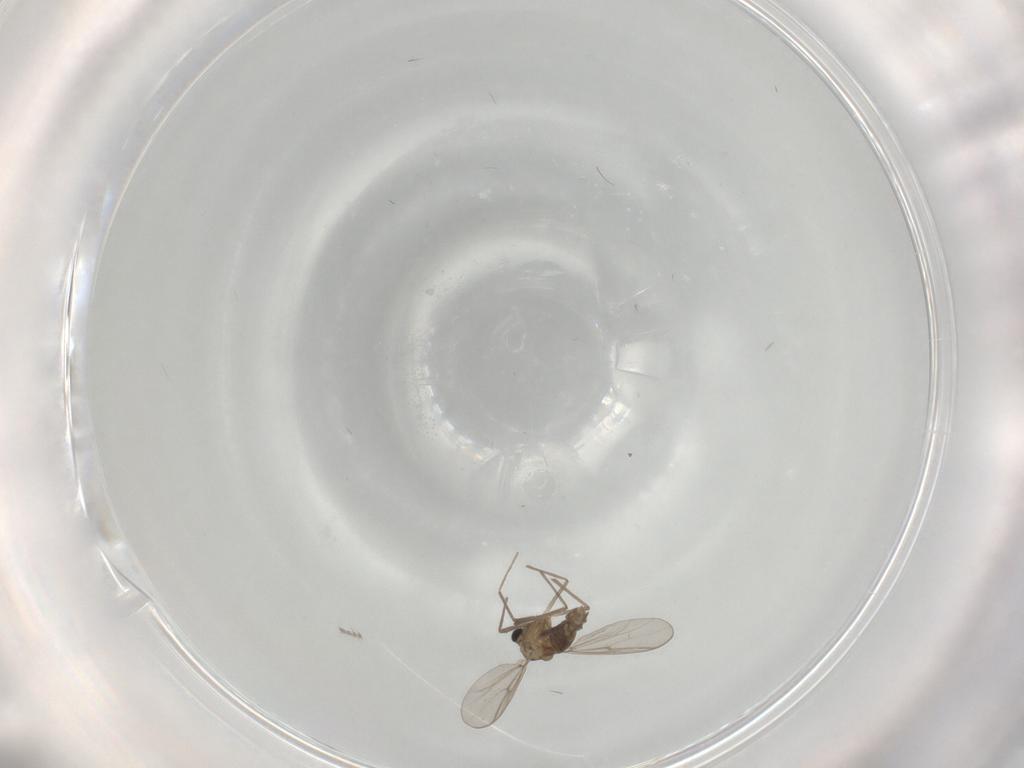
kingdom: Animalia
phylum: Arthropoda
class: Insecta
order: Diptera
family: Chironomidae
